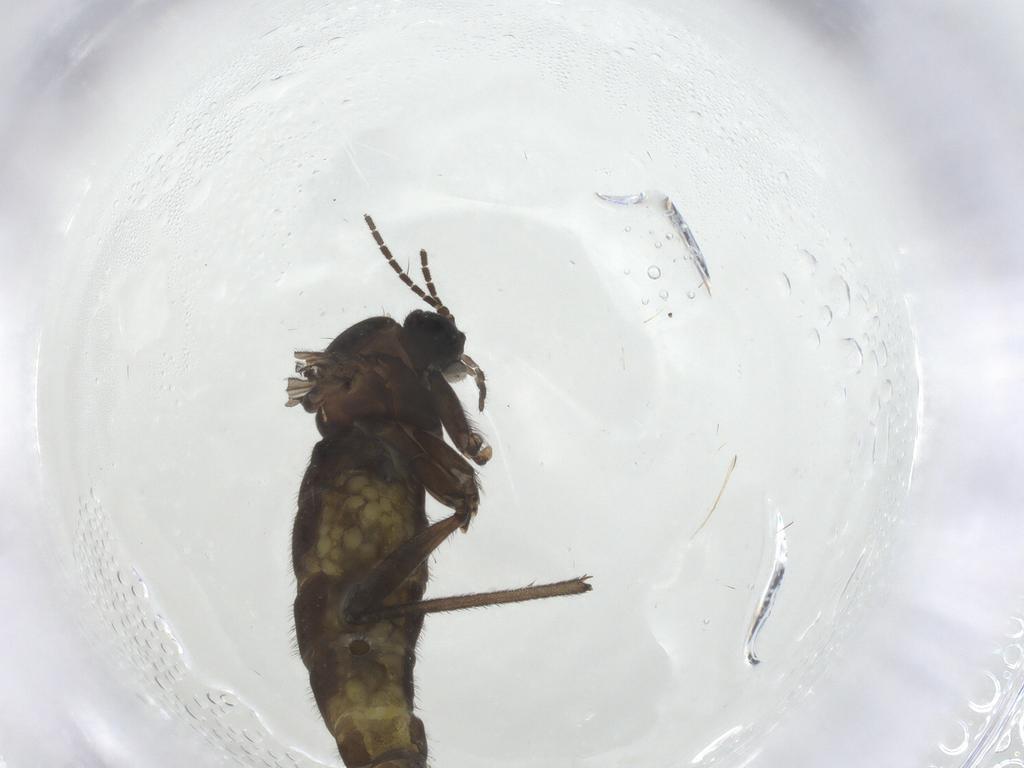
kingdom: Animalia
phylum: Arthropoda
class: Insecta
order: Diptera
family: Sciaridae
